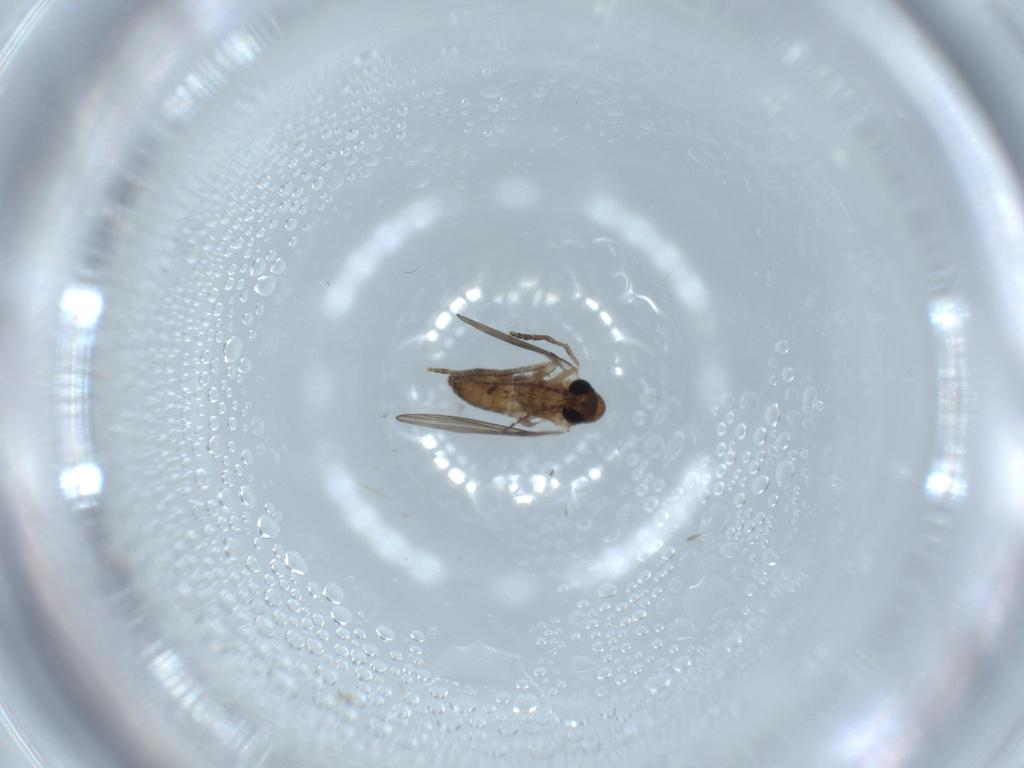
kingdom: Animalia
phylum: Arthropoda
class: Insecta
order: Diptera
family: Psychodidae
